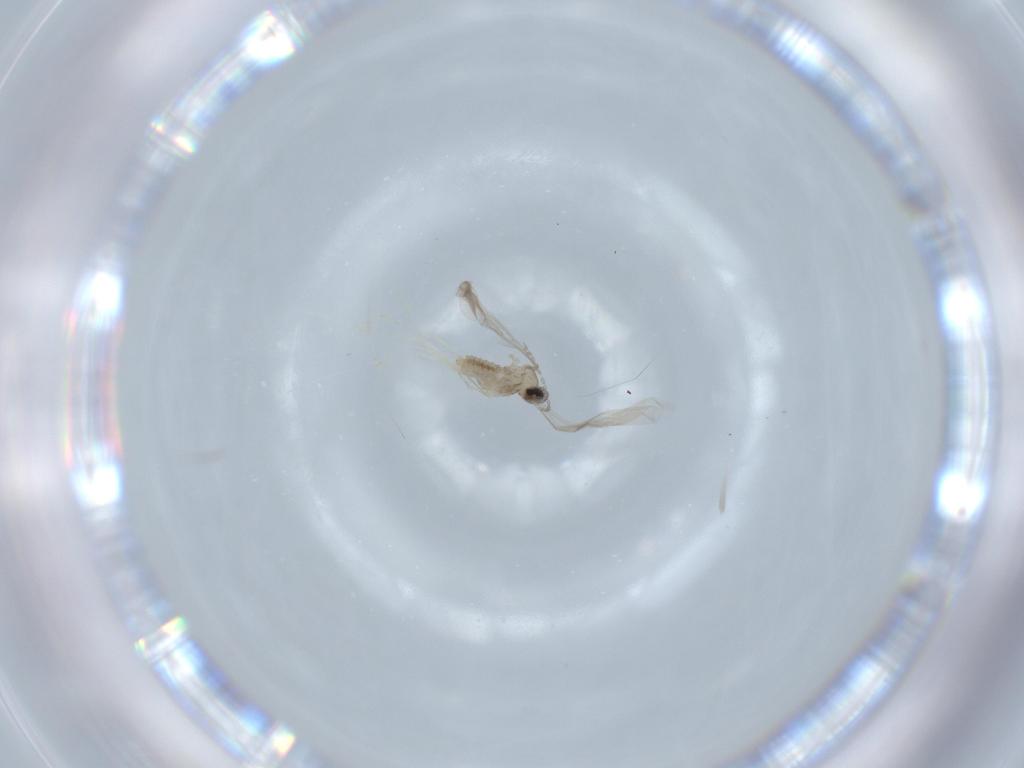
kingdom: Animalia
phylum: Arthropoda
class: Insecta
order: Diptera
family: Cecidomyiidae
